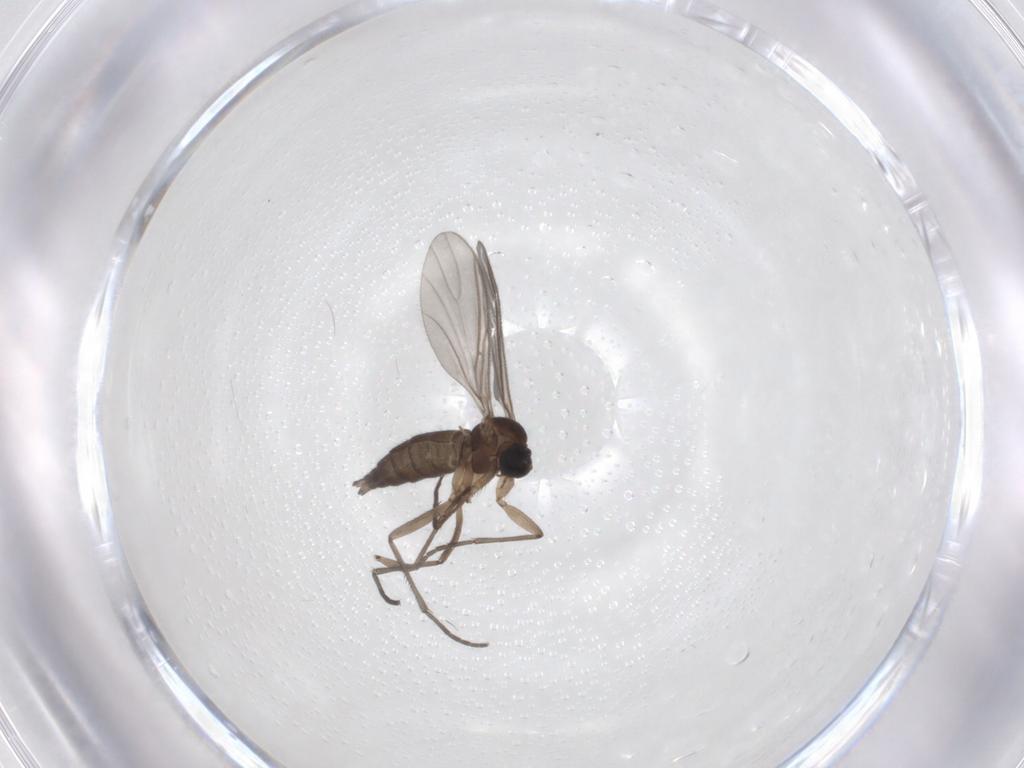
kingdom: Animalia
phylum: Arthropoda
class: Insecta
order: Diptera
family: Sciaridae
